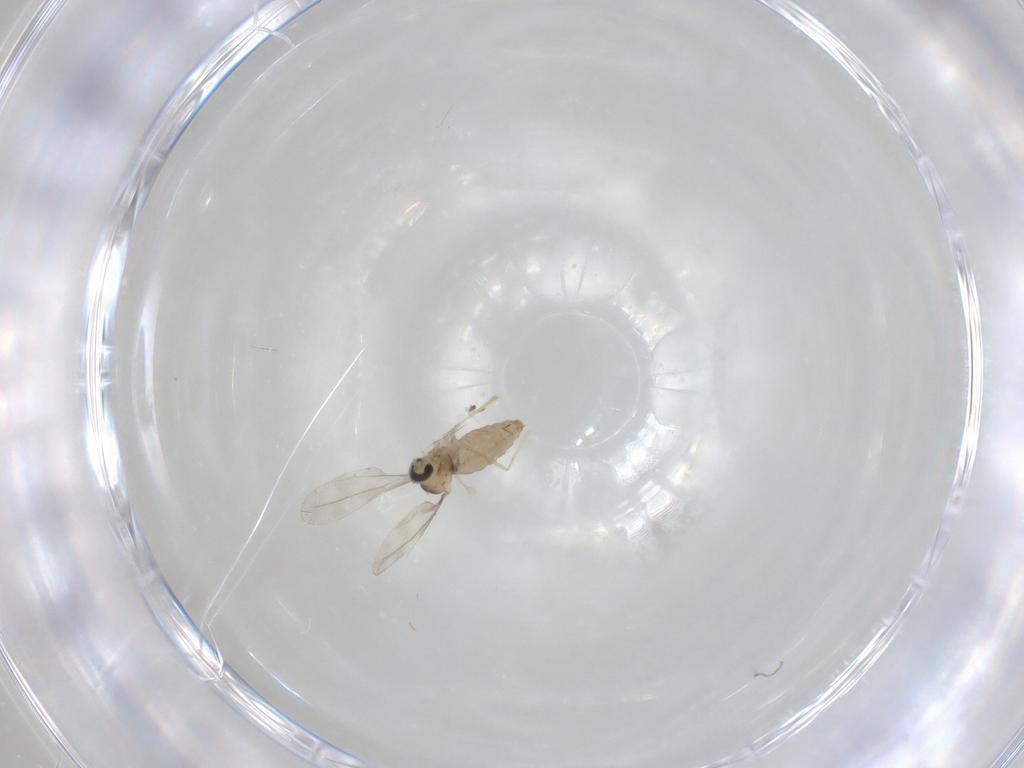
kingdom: Animalia
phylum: Arthropoda
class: Insecta
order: Diptera
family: Cecidomyiidae
